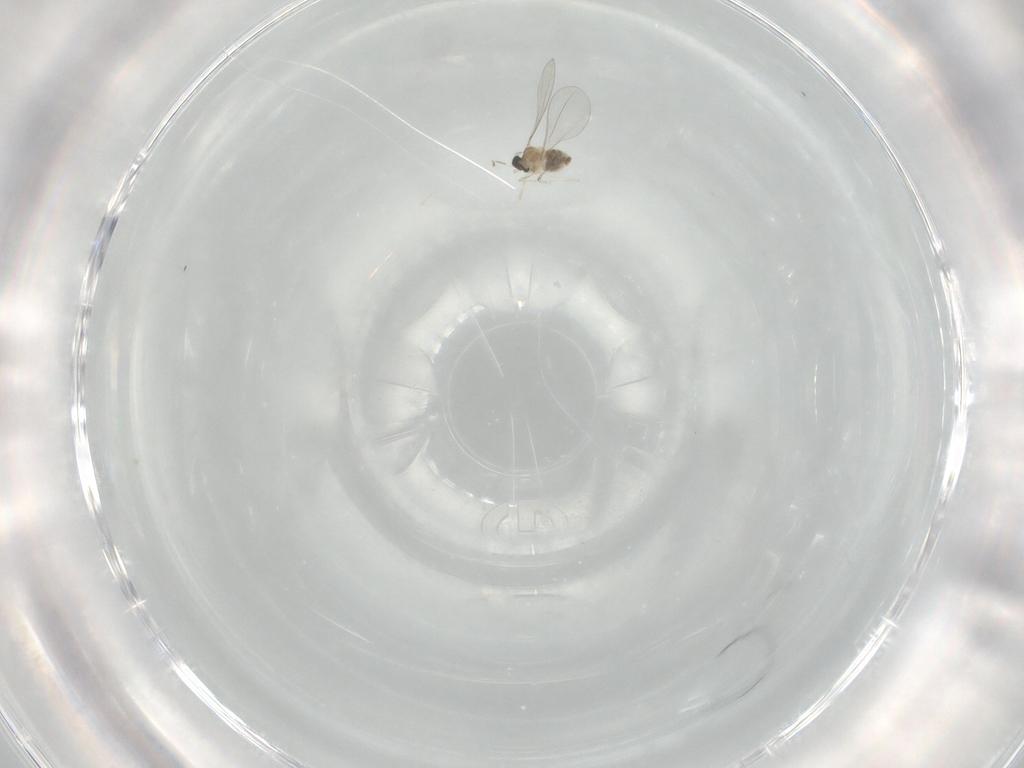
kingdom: Animalia
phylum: Arthropoda
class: Insecta
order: Diptera
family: Cecidomyiidae
